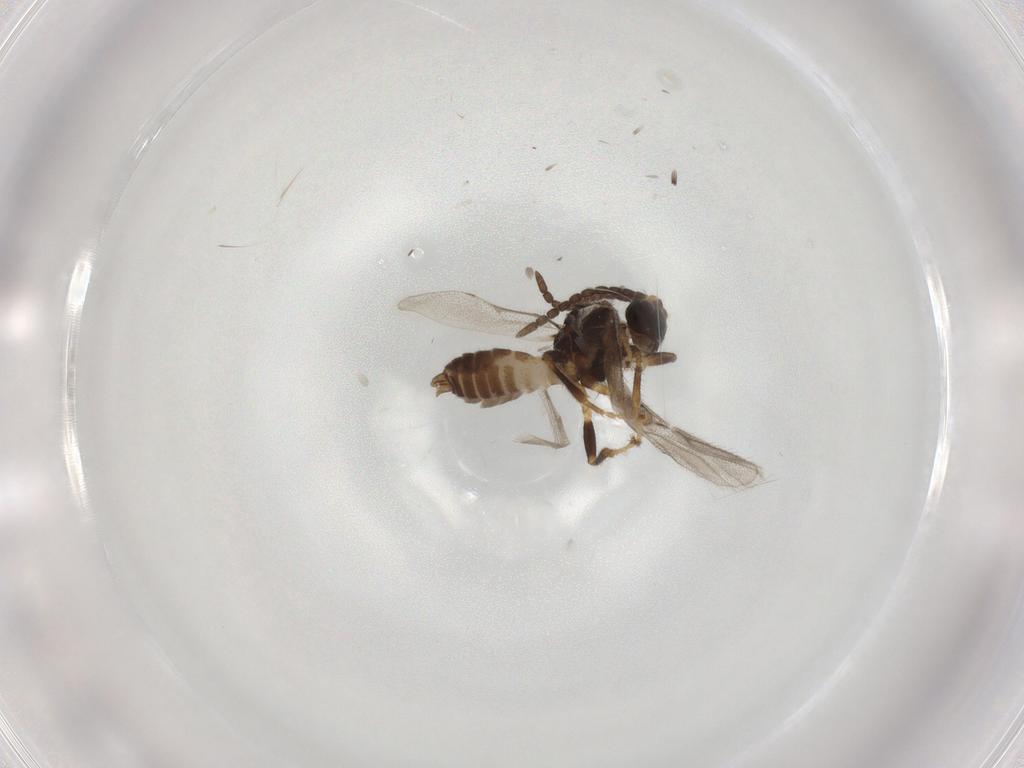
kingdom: Animalia
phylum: Arthropoda
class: Insecta
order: Hymenoptera
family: Braconidae
